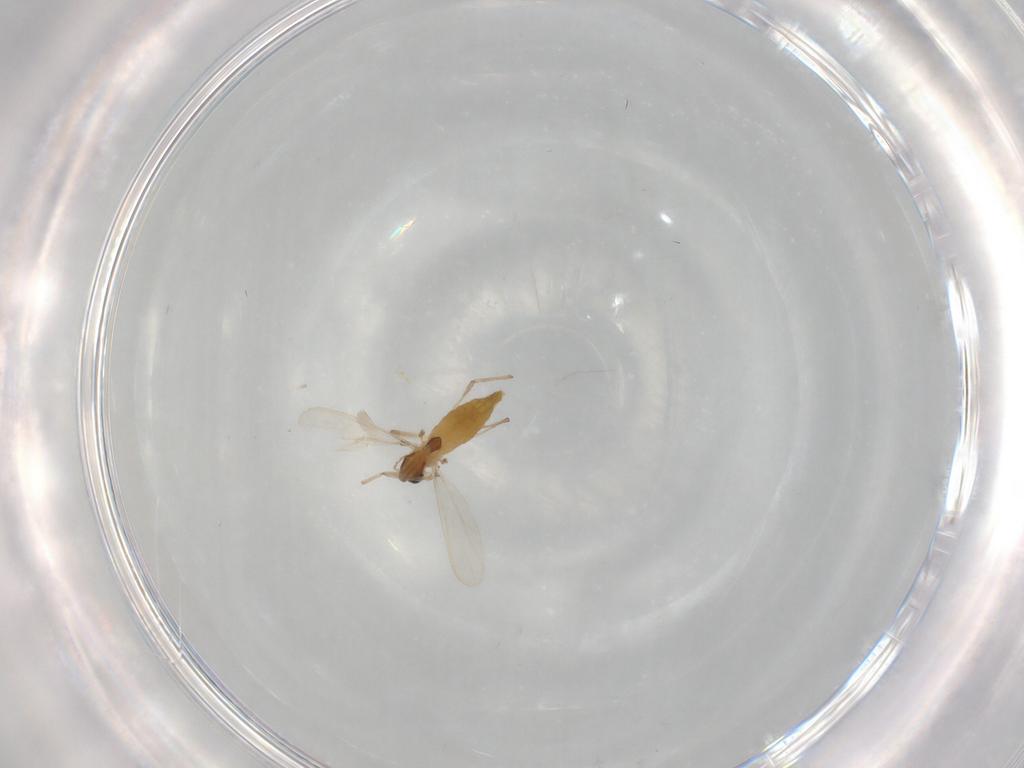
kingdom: Animalia
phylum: Arthropoda
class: Insecta
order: Diptera
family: Chironomidae
